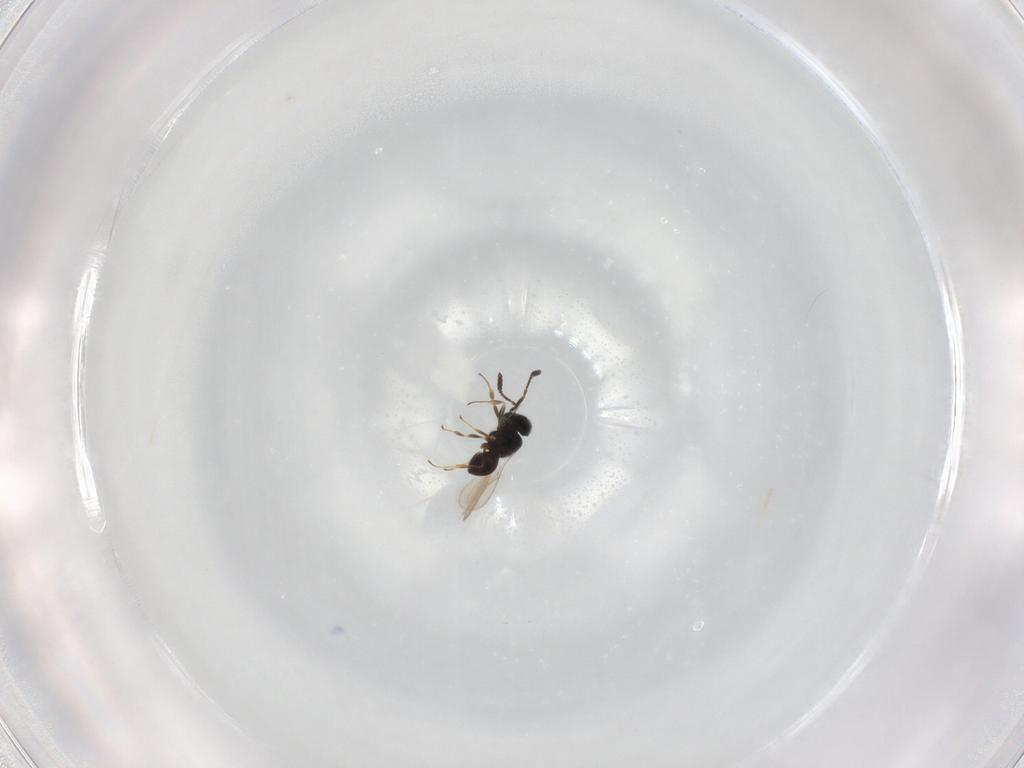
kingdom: Animalia
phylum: Arthropoda
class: Insecta
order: Hymenoptera
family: Scelionidae
